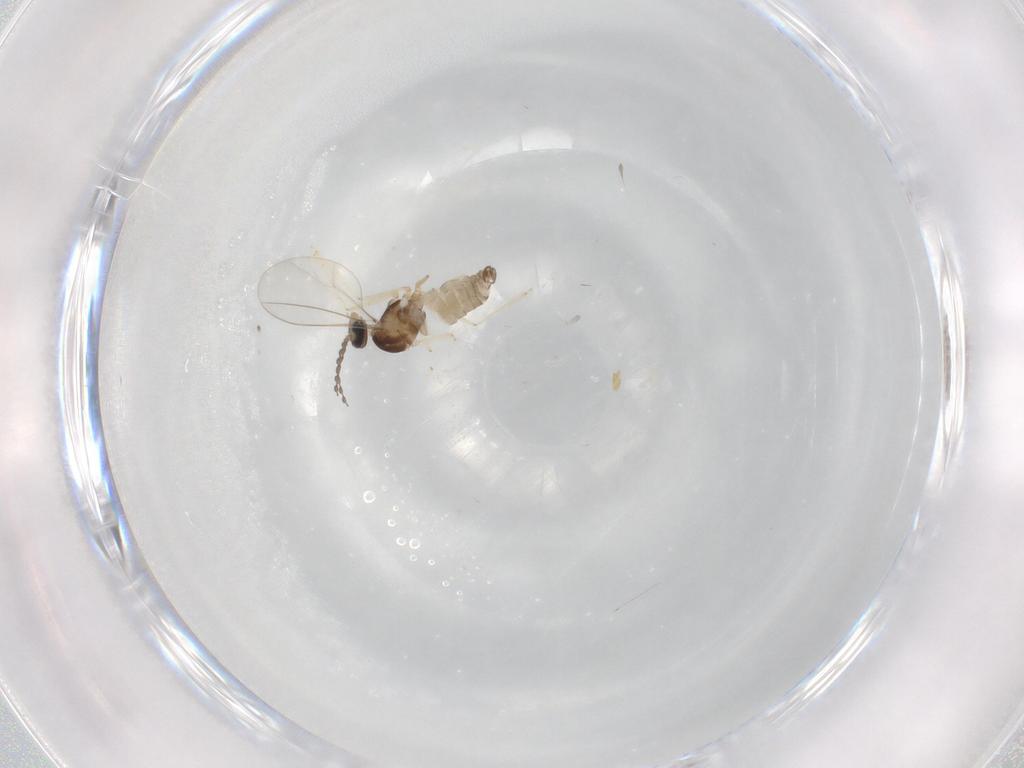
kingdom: Animalia
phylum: Arthropoda
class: Insecta
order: Diptera
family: Cecidomyiidae
